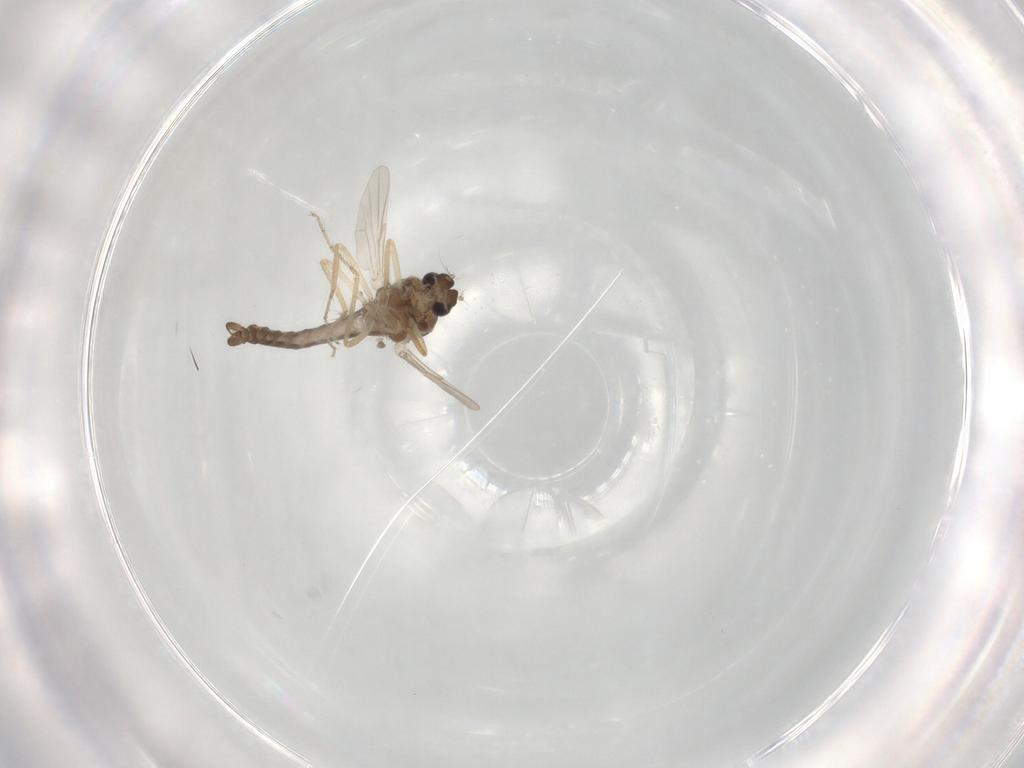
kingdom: Animalia
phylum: Arthropoda
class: Insecta
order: Diptera
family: Ceratopogonidae
